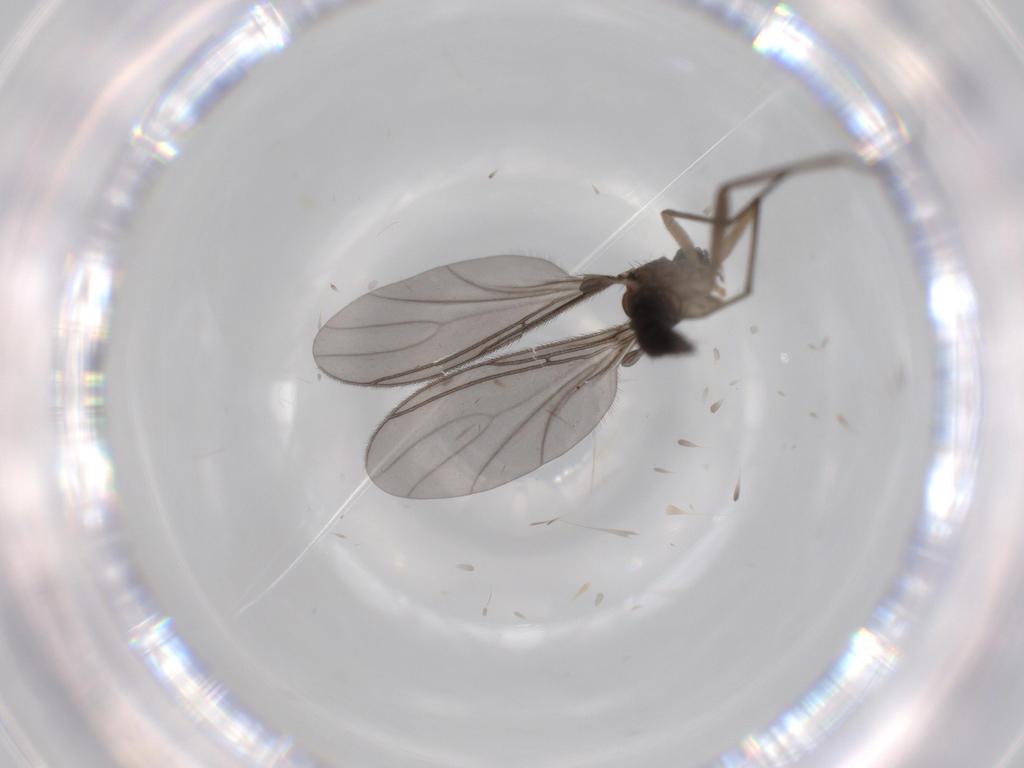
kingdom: Animalia
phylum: Arthropoda
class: Insecta
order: Diptera
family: Sciaridae
